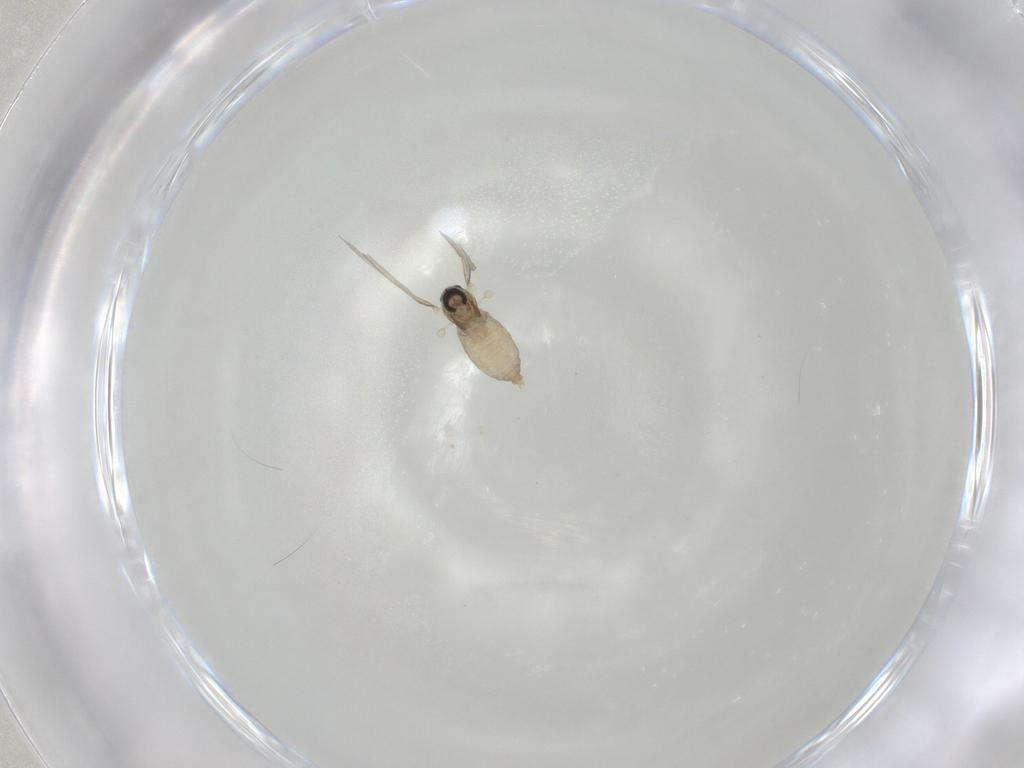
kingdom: Animalia
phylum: Arthropoda
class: Insecta
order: Diptera
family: Cecidomyiidae
